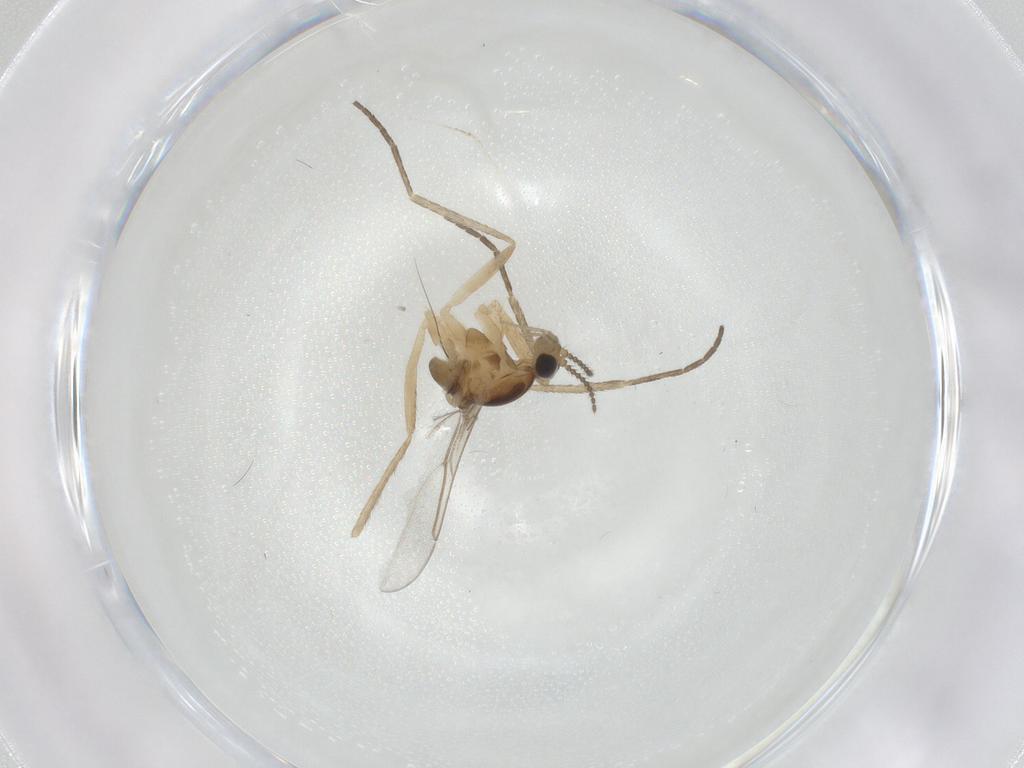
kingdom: Animalia
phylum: Arthropoda
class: Insecta
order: Diptera
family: Cecidomyiidae
